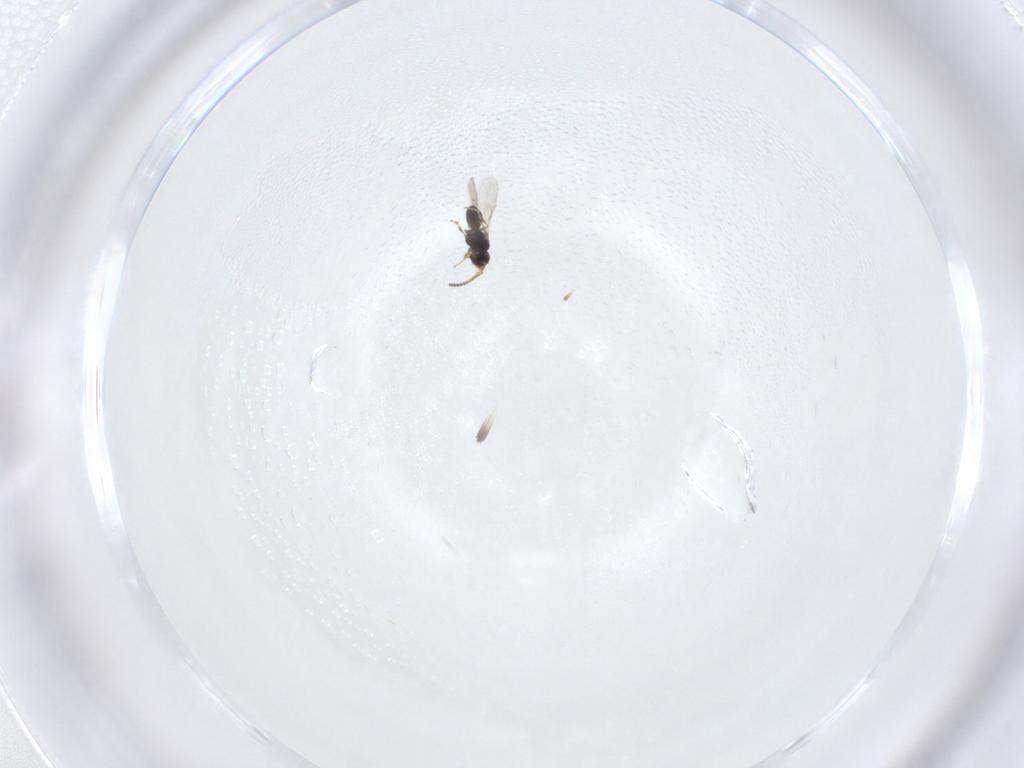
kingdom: Animalia
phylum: Arthropoda
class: Insecta
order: Hymenoptera
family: Scelionidae
